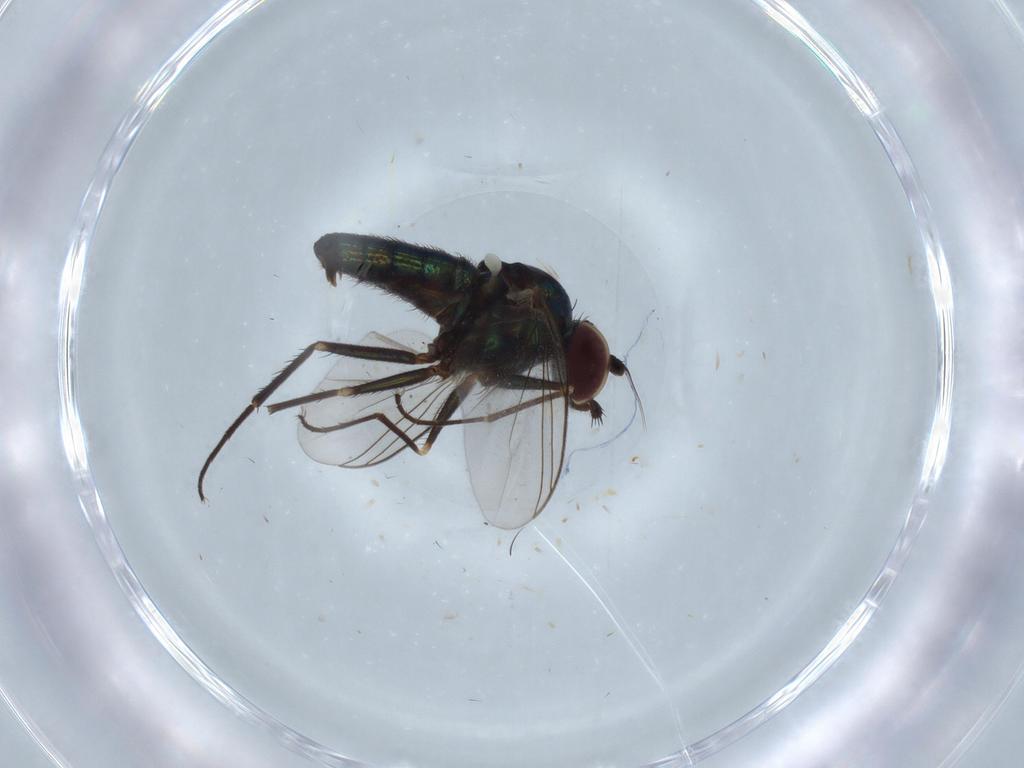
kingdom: Animalia
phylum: Arthropoda
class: Insecta
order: Diptera
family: Dolichopodidae
